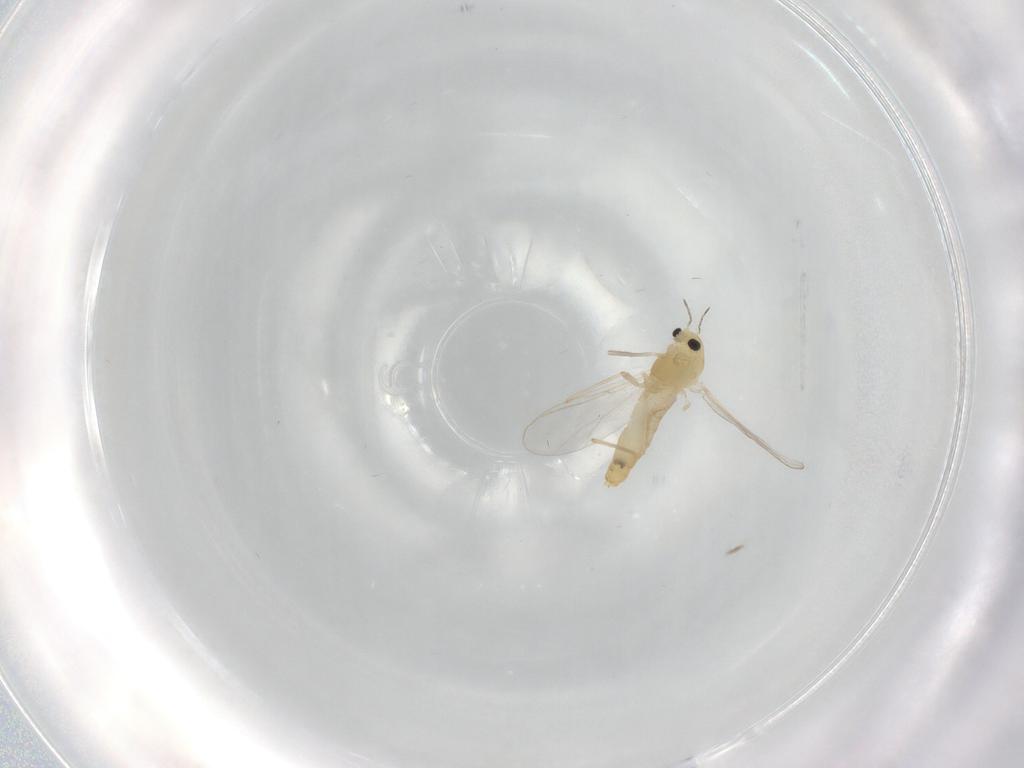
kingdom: Animalia
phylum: Arthropoda
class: Insecta
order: Diptera
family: Chironomidae
